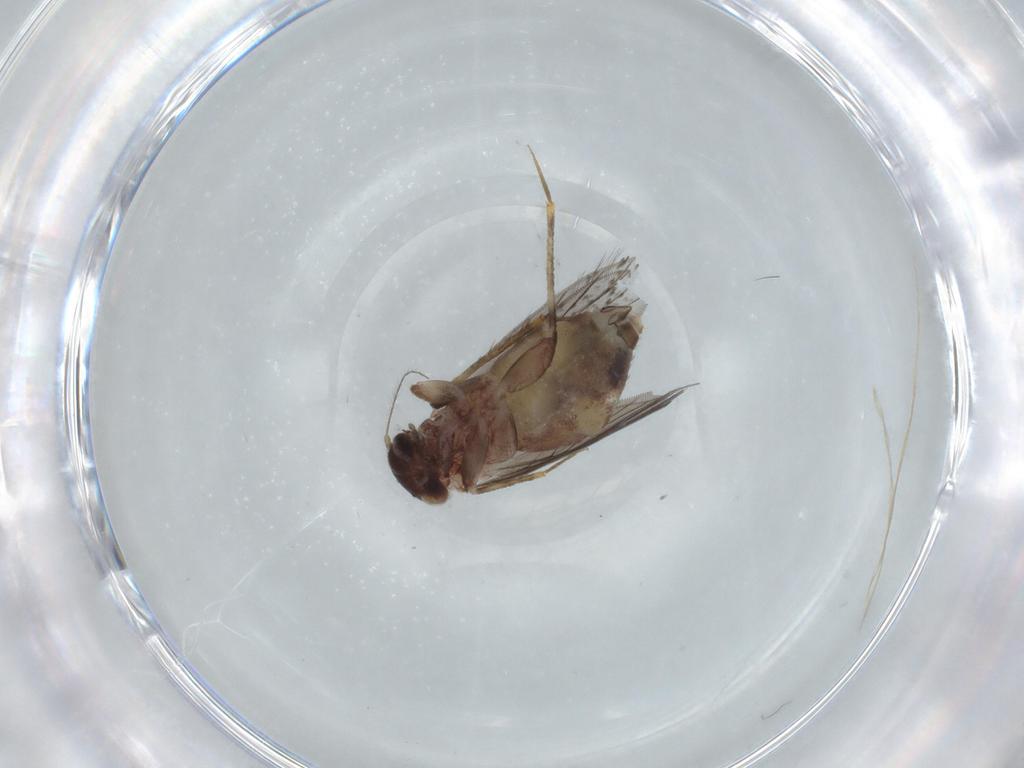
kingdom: Animalia
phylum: Arthropoda
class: Insecta
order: Psocodea
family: Lepidopsocidae
